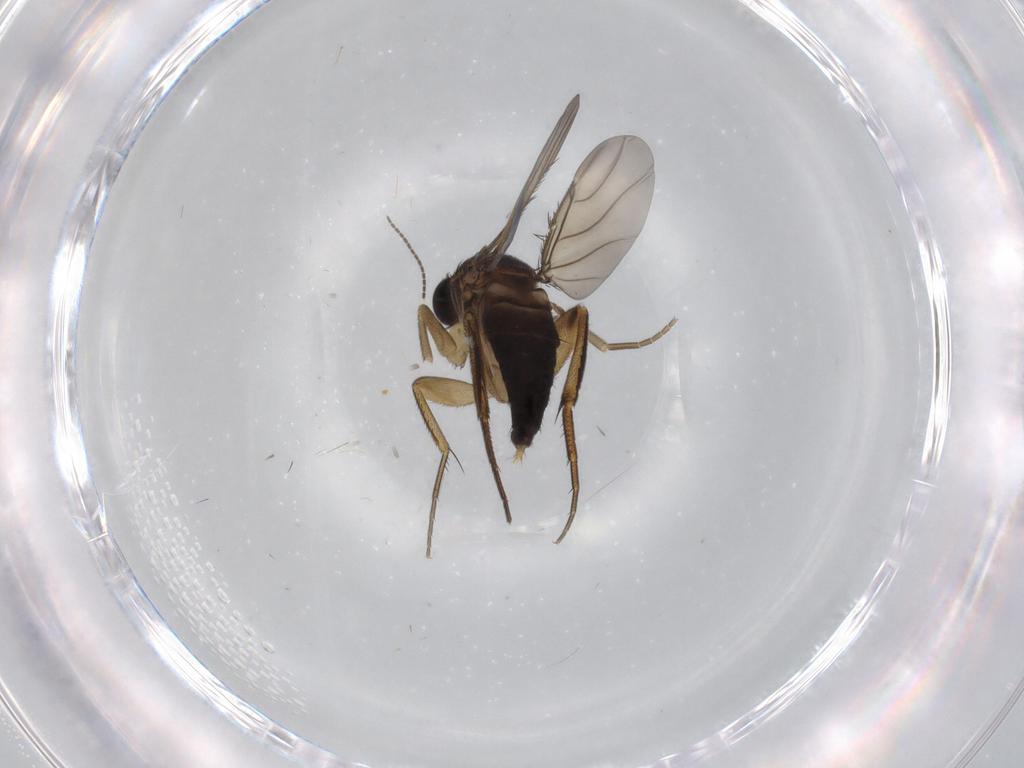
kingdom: Animalia
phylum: Arthropoda
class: Insecta
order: Diptera
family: Phoridae
